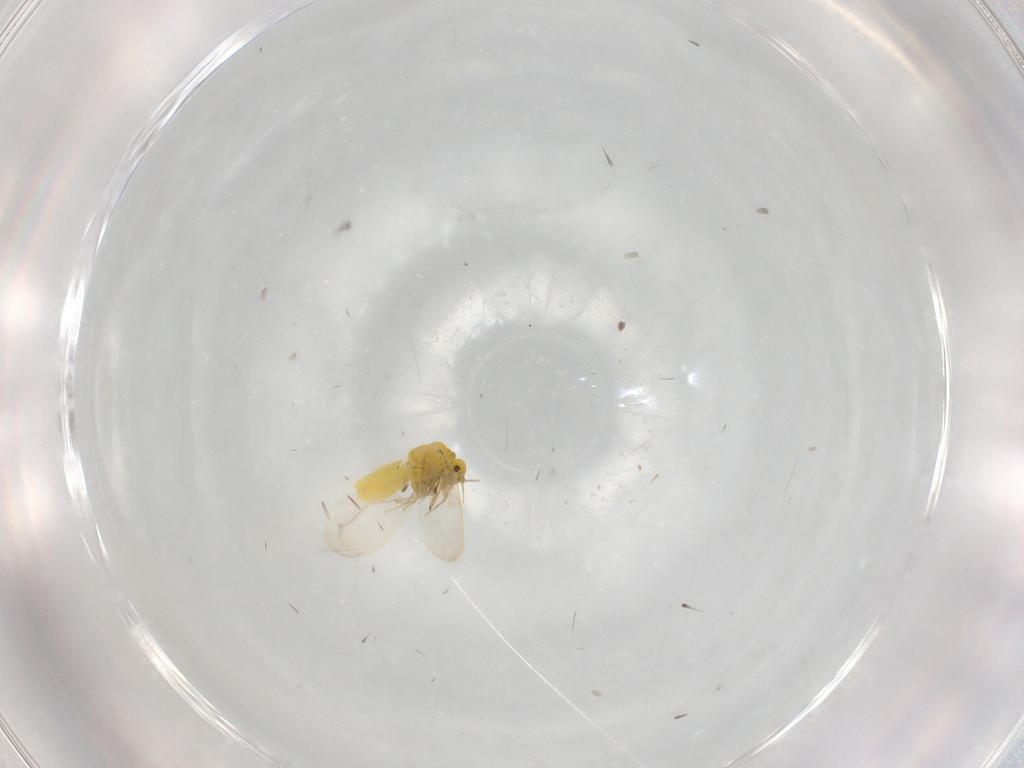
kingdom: Animalia
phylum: Arthropoda
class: Insecta
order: Hemiptera
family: Aleyrodidae
